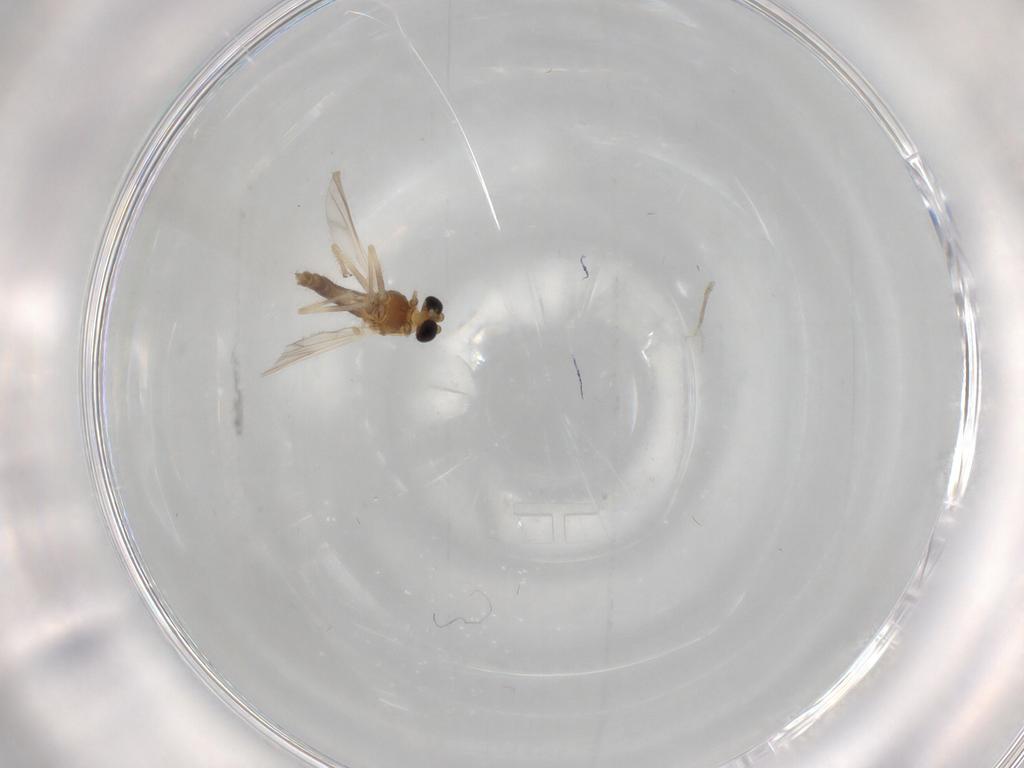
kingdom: Animalia
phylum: Arthropoda
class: Insecta
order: Diptera
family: Chironomidae
